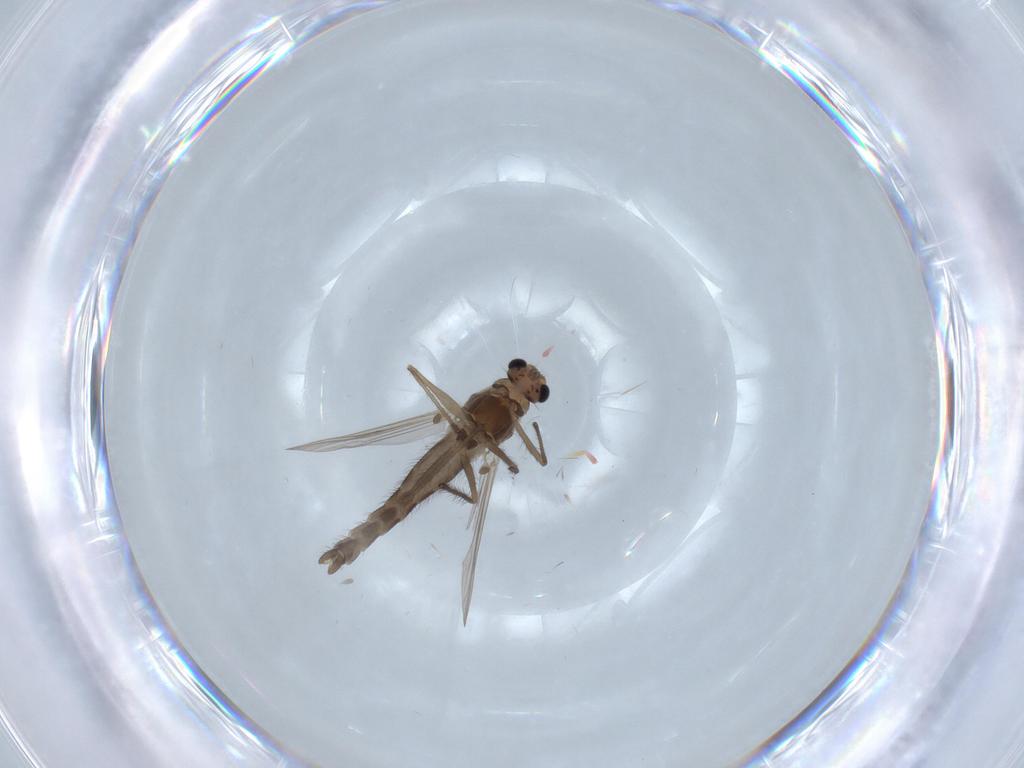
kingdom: Animalia
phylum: Arthropoda
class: Insecta
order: Diptera
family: Chironomidae
